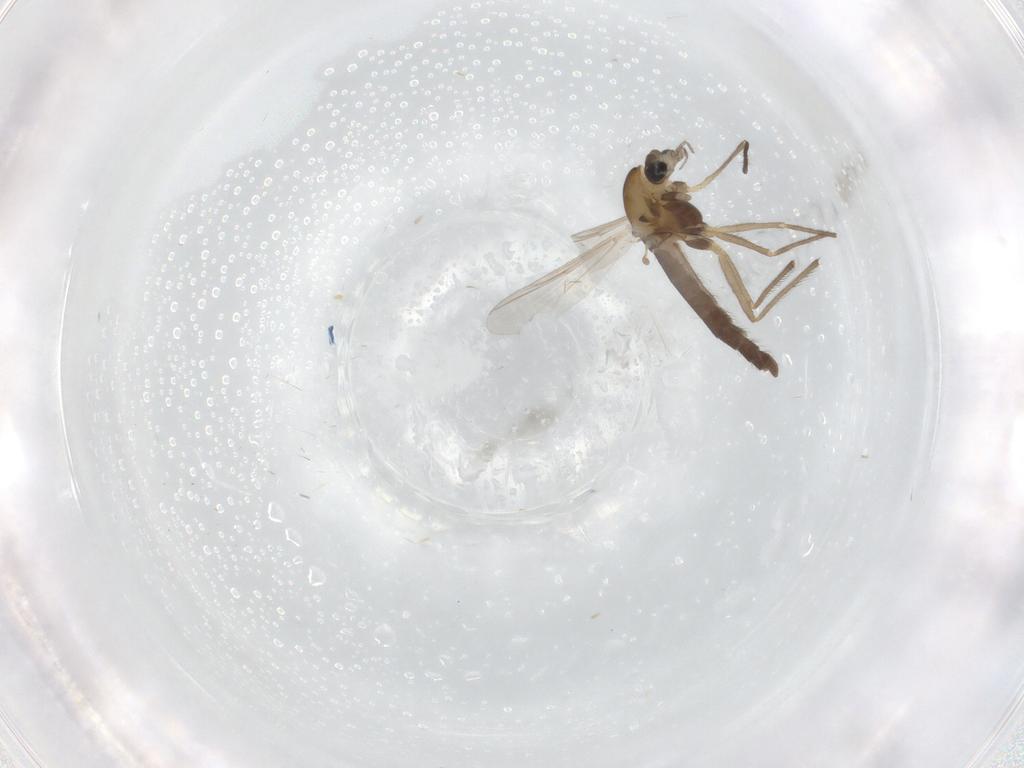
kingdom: Animalia
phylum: Arthropoda
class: Insecta
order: Diptera
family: Chironomidae
